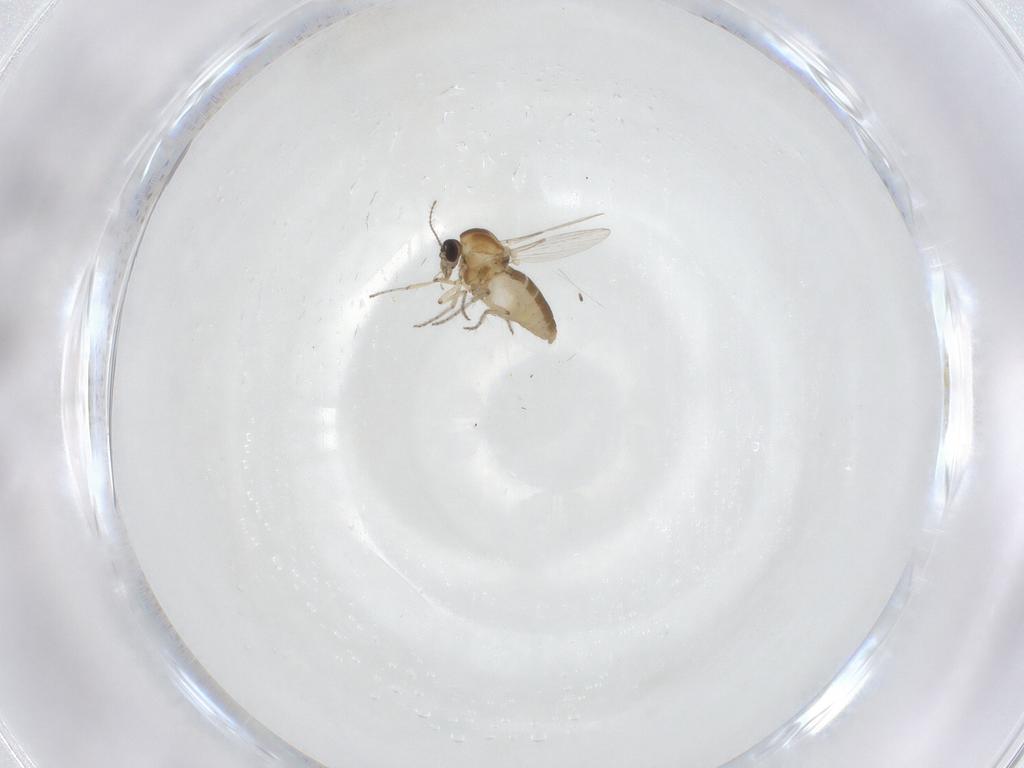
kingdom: Animalia
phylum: Arthropoda
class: Insecta
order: Diptera
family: Ceratopogonidae
